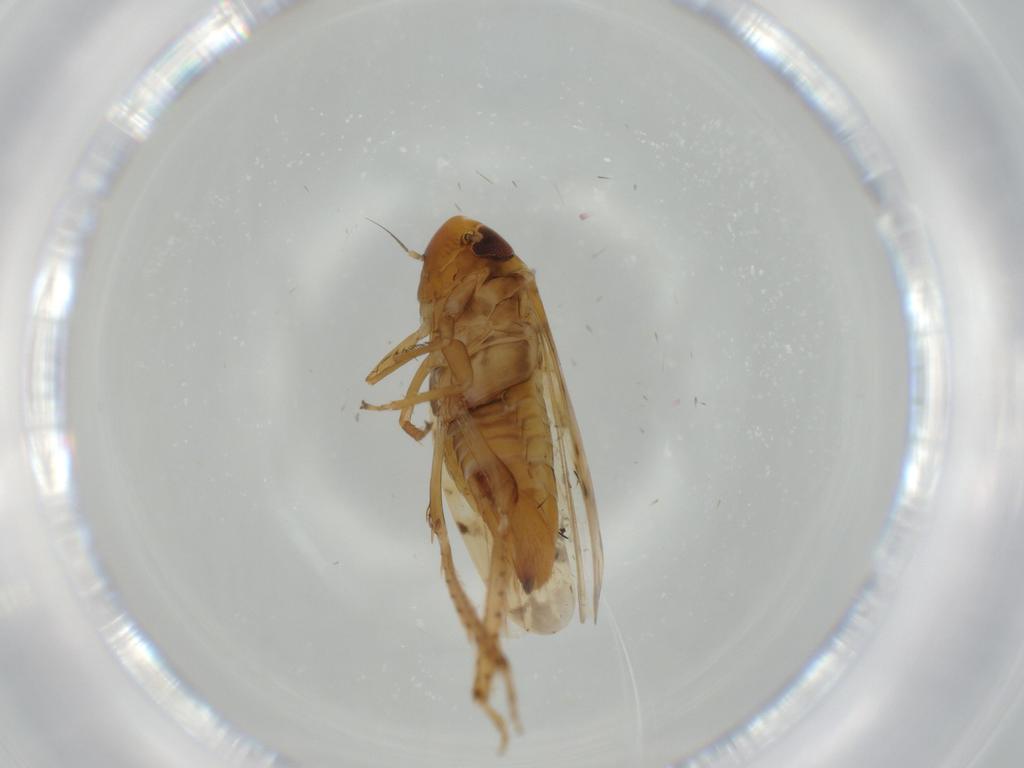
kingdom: Animalia
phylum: Arthropoda
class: Insecta
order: Hemiptera
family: Cicadellidae
